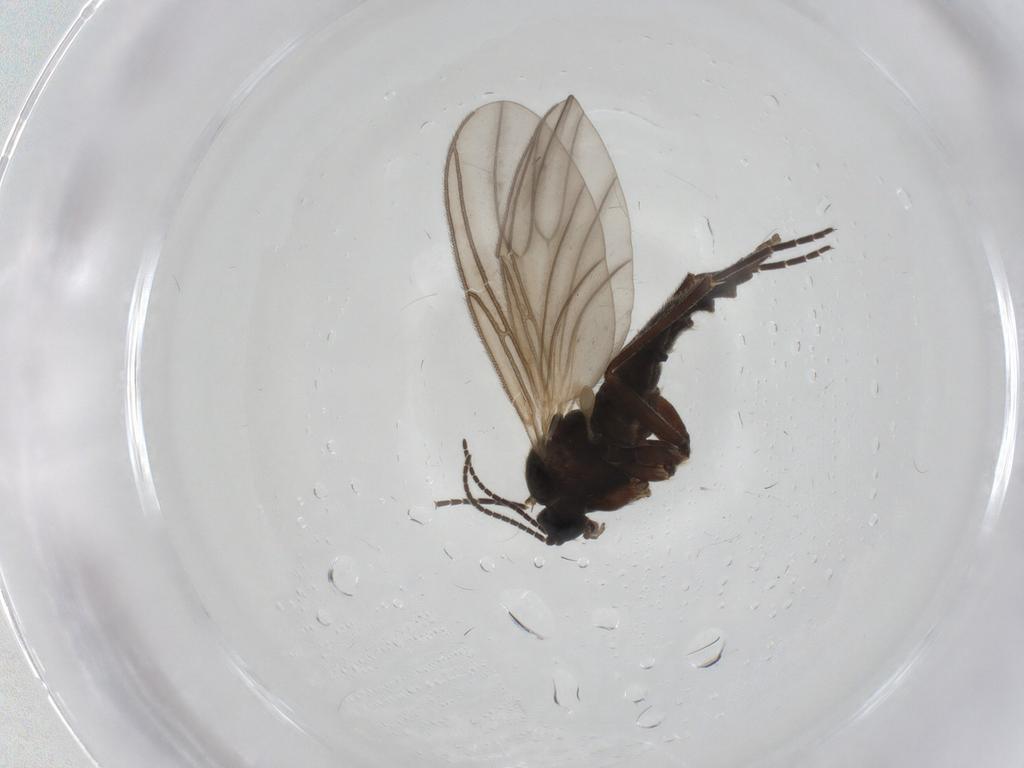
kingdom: Animalia
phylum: Arthropoda
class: Insecta
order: Diptera
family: Sciaridae
